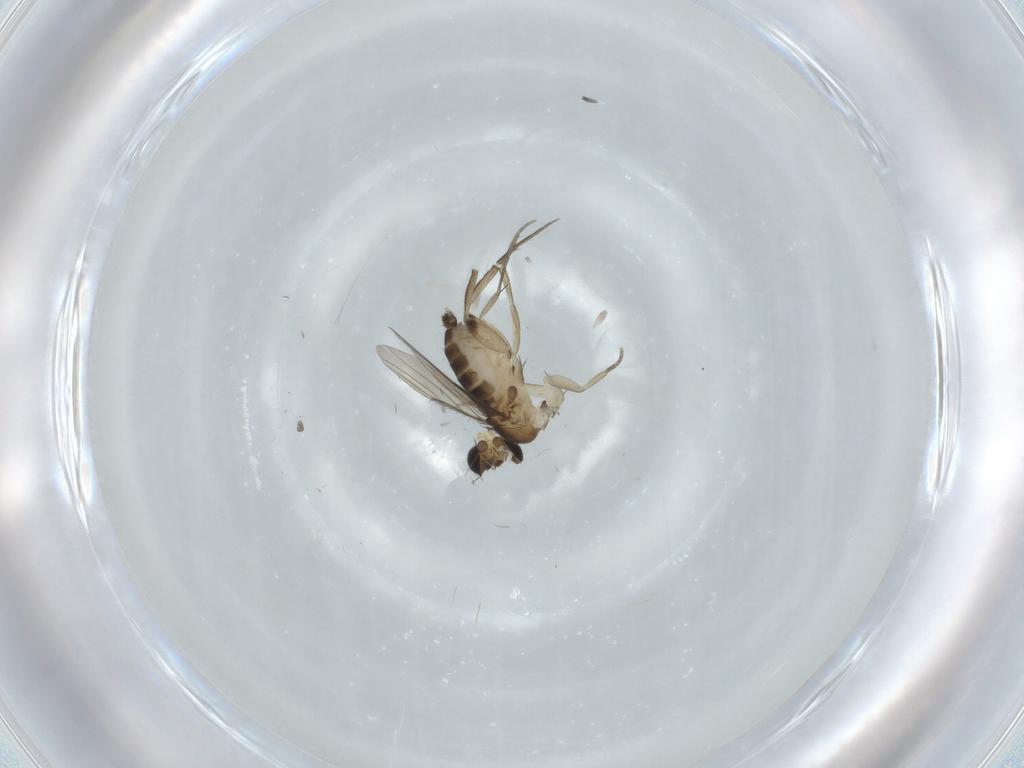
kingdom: Animalia
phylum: Arthropoda
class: Insecta
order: Diptera
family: Phoridae
